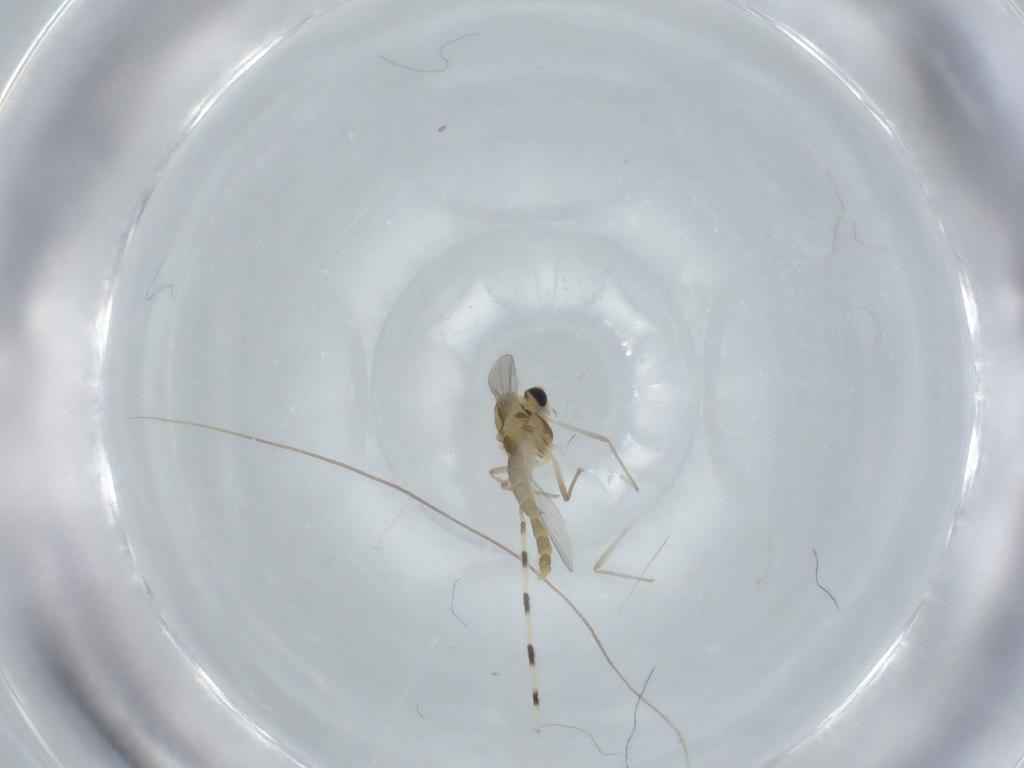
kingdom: Animalia
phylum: Arthropoda
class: Insecta
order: Diptera
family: Chironomidae
